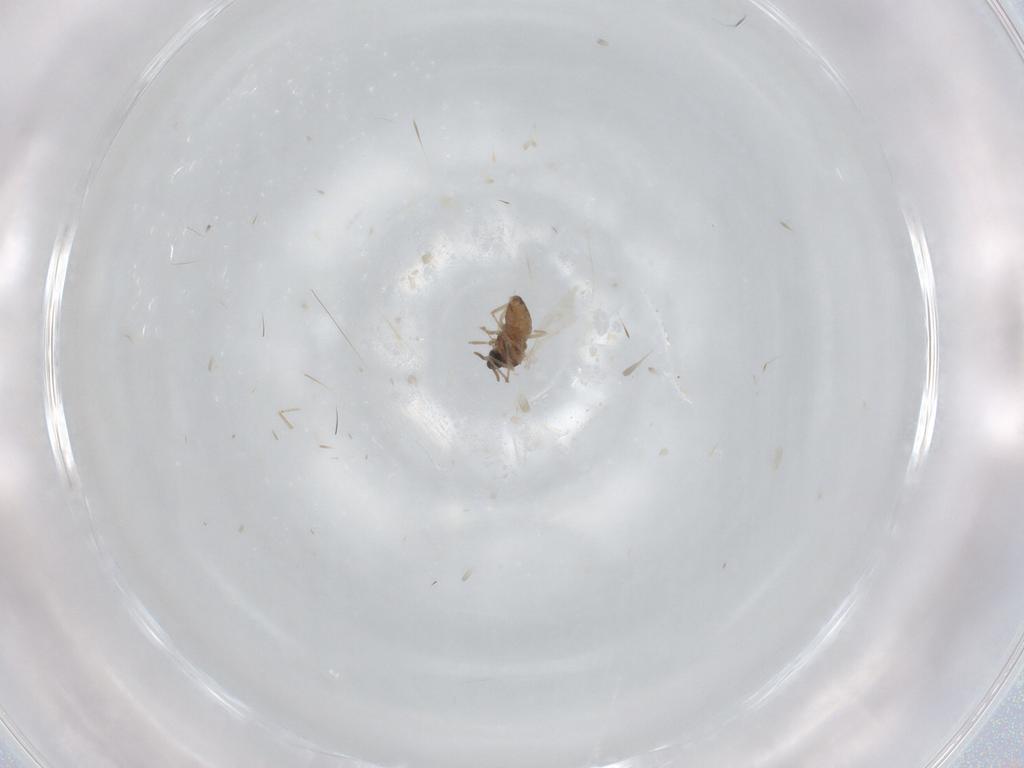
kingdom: Animalia
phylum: Arthropoda
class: Insecta
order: Diptera
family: Cecidomyiidae
